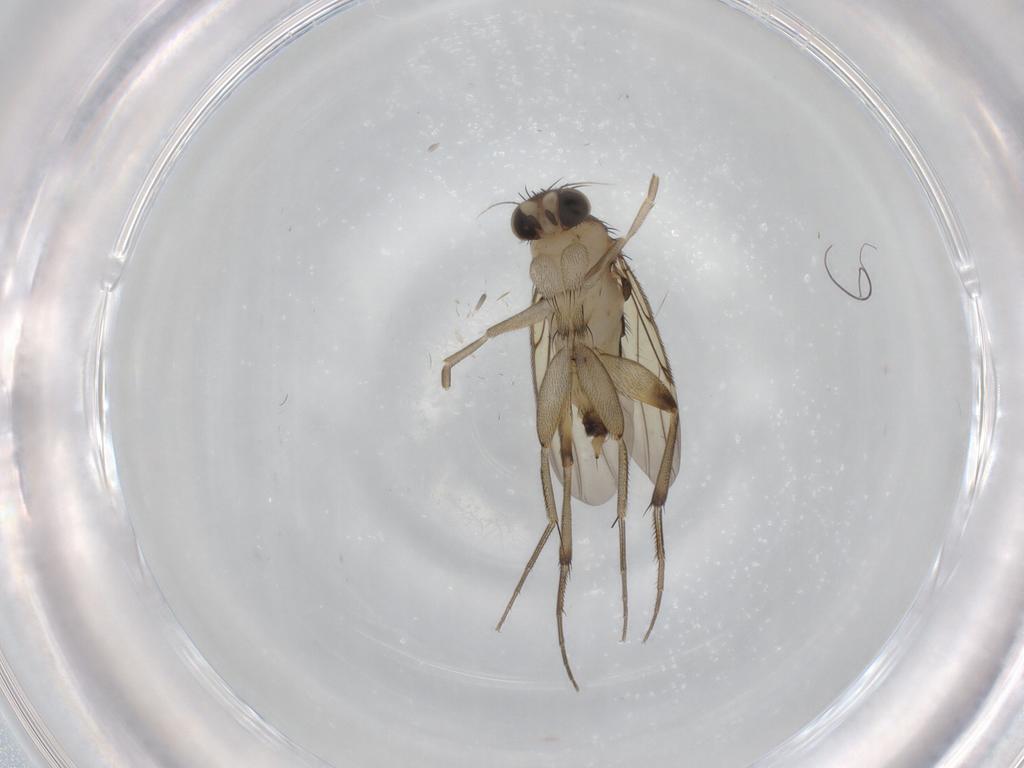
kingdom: Animalia
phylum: Arthropoda
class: Insecta
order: Diptera
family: Phoridae
